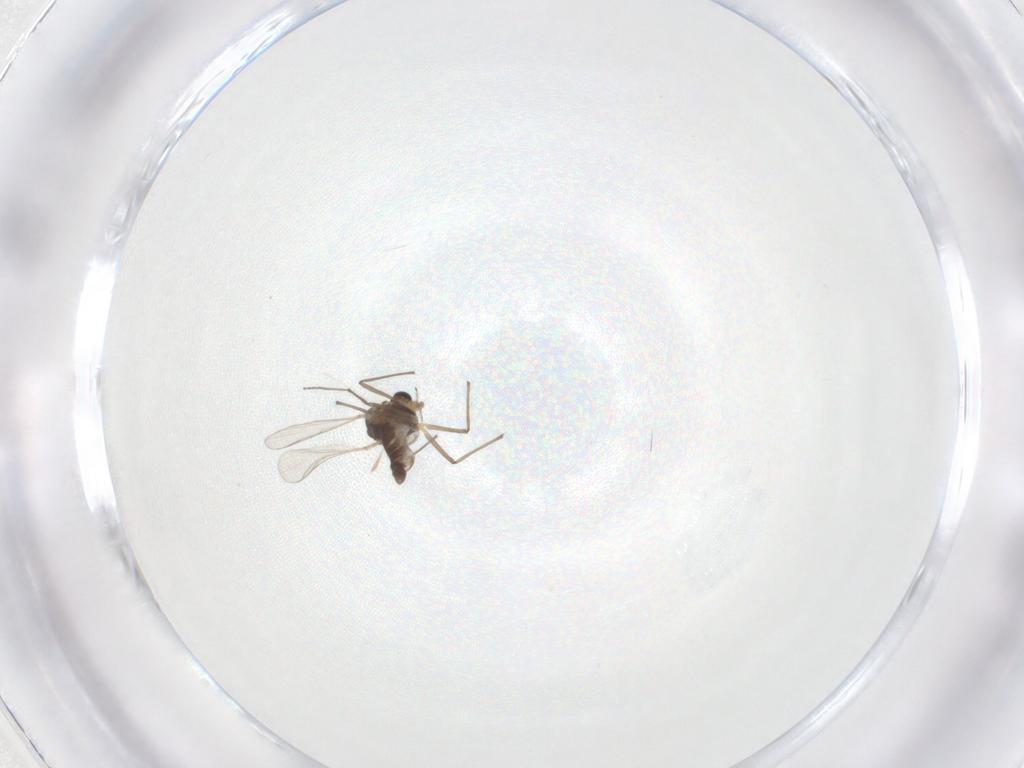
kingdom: Animalia
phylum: Arthropoda
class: Insecta
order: Diptera
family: Chironomidae
